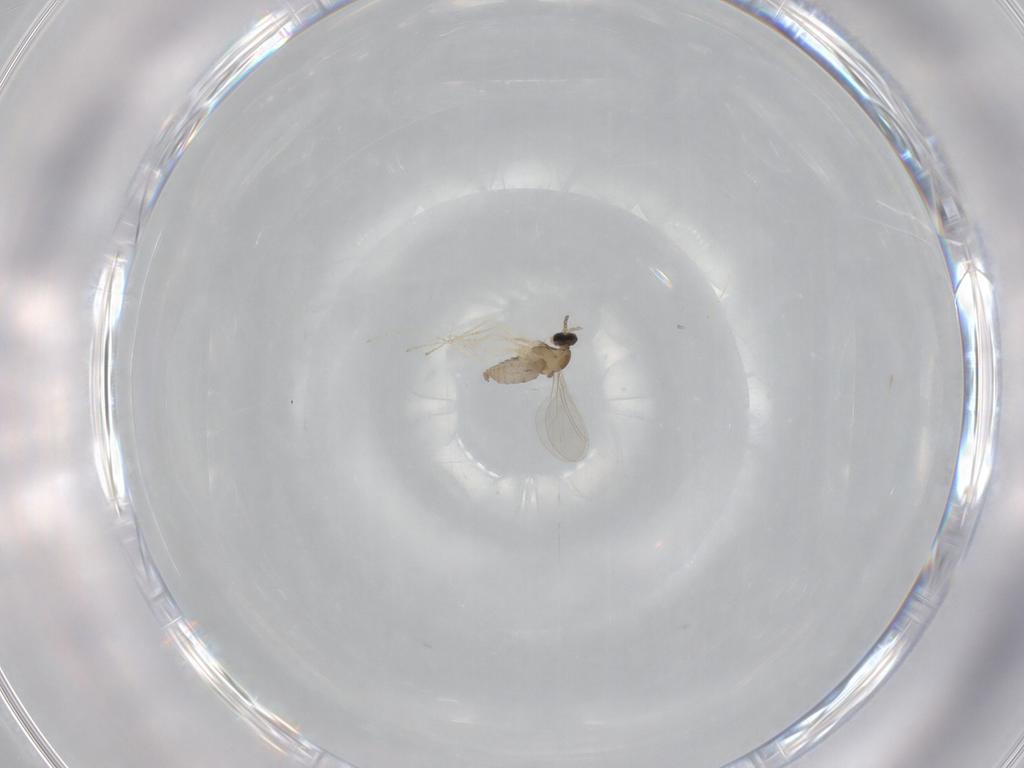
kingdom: Animalia
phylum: Arthropoda
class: Insecta
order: Diptera
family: Cecidomyiidae
